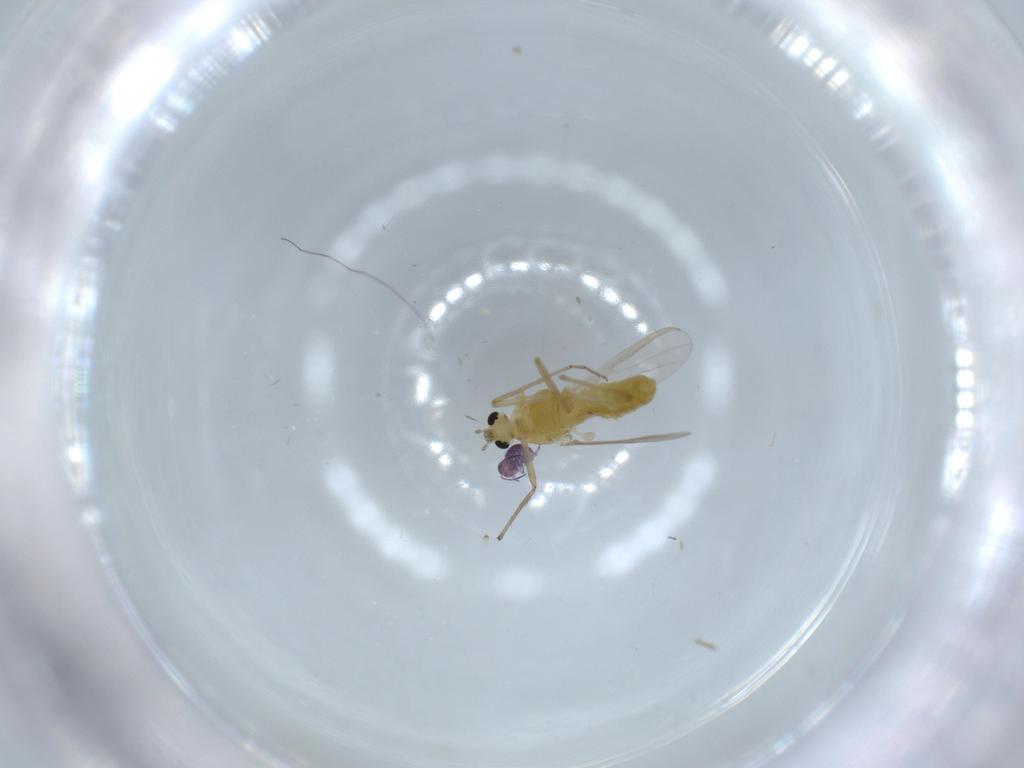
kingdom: Animalia
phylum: Arthropoda
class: Insecta
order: Diptera
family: Chironomidae
